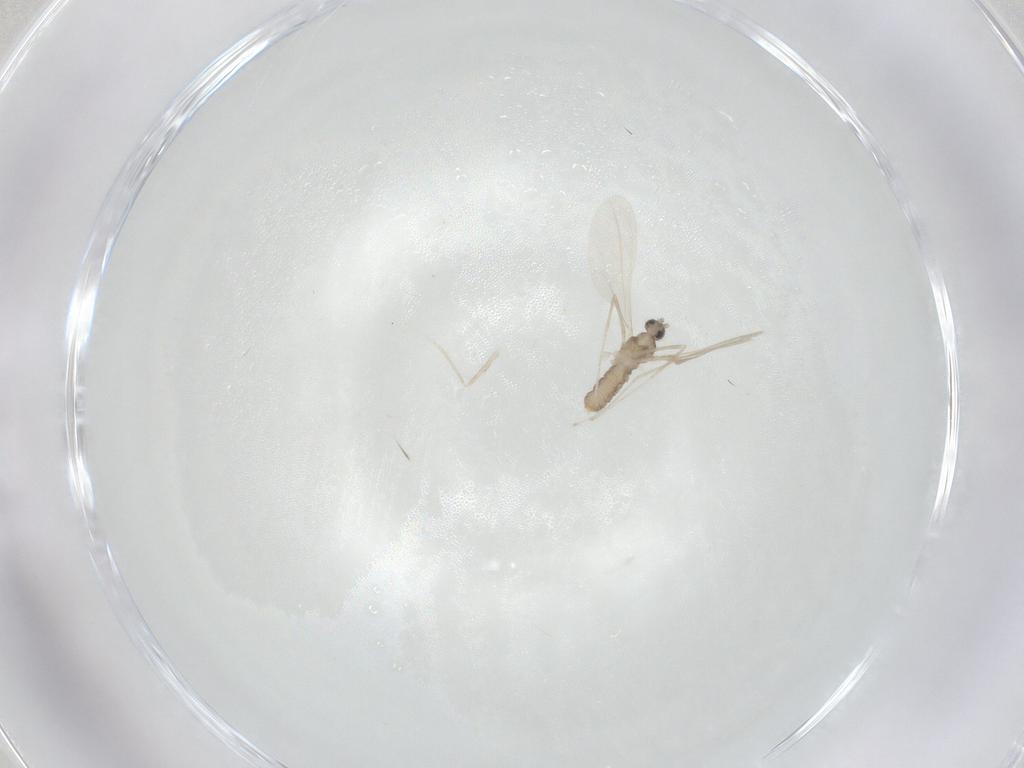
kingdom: Animalia
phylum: Arthropoda
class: Insecta
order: Diptera
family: Cecidomyiidae
